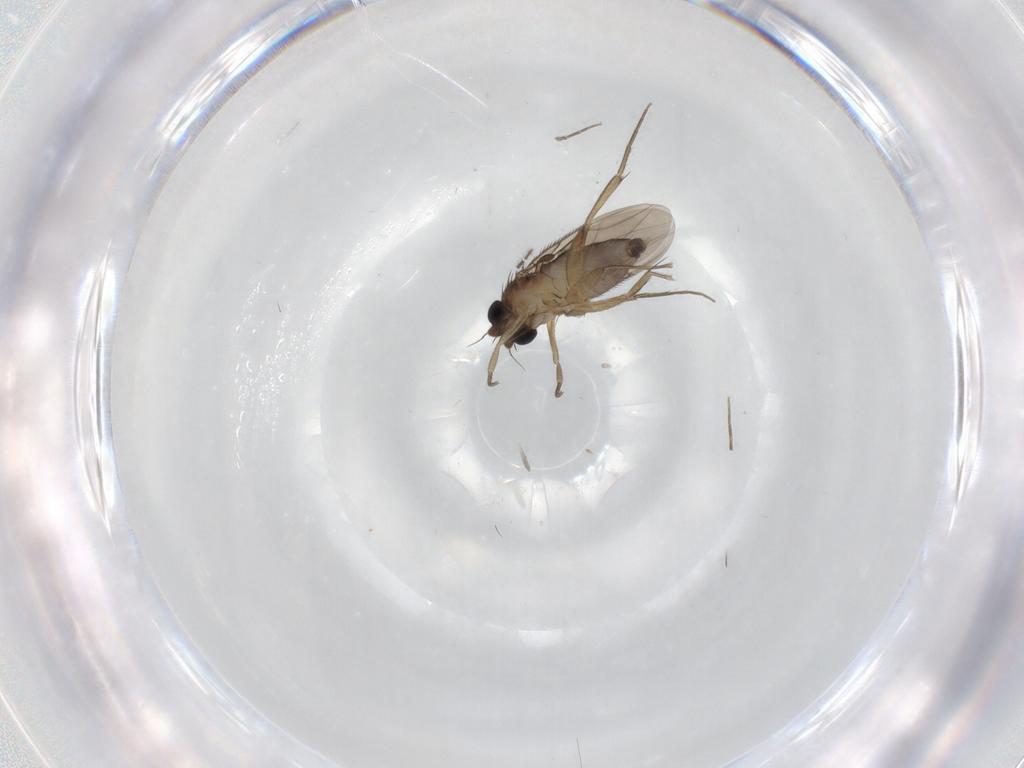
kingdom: Animalia
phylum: Arthropoda
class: Insecta
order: Diptera
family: Phoridae
